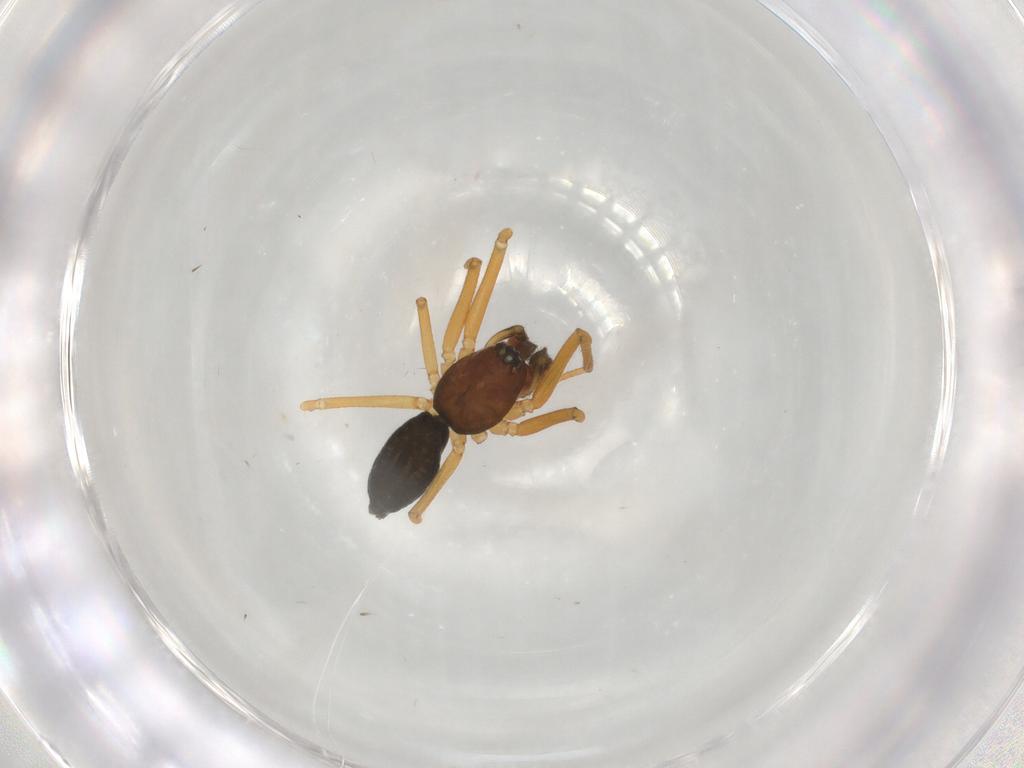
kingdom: Animalia
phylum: Arthropoda
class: Arachnida
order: Araneae
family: Linyphiidae
